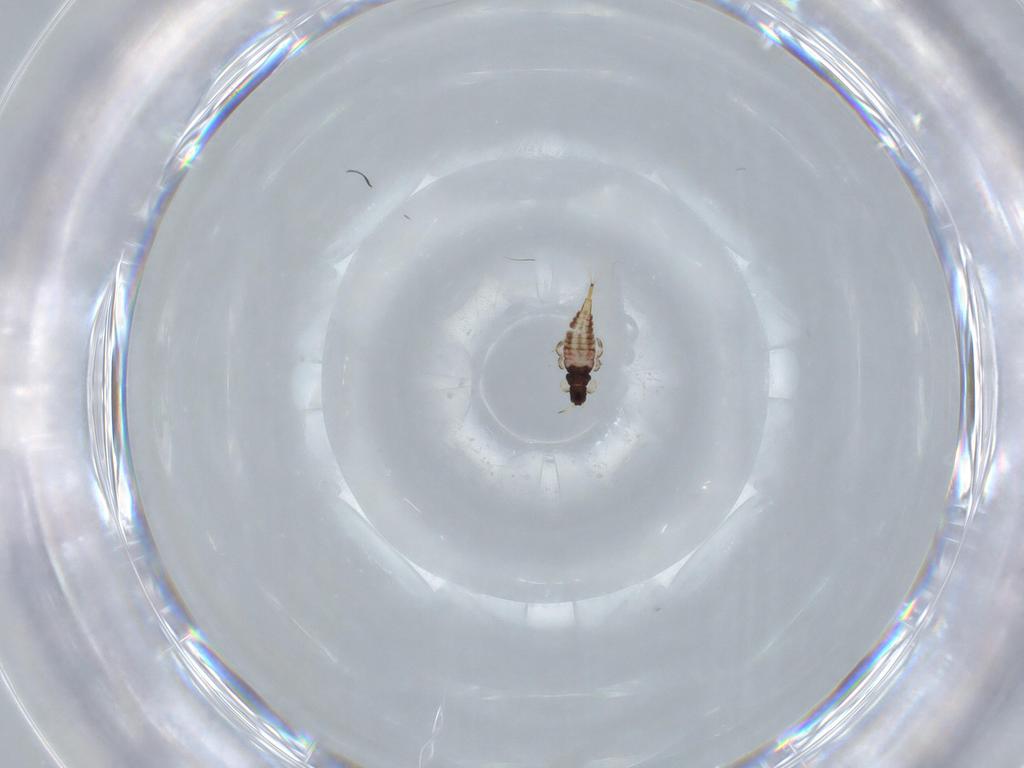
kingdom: Animalia
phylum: Arthropoda
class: Insecta
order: Thysanoptera
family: Phlaeothripidae
